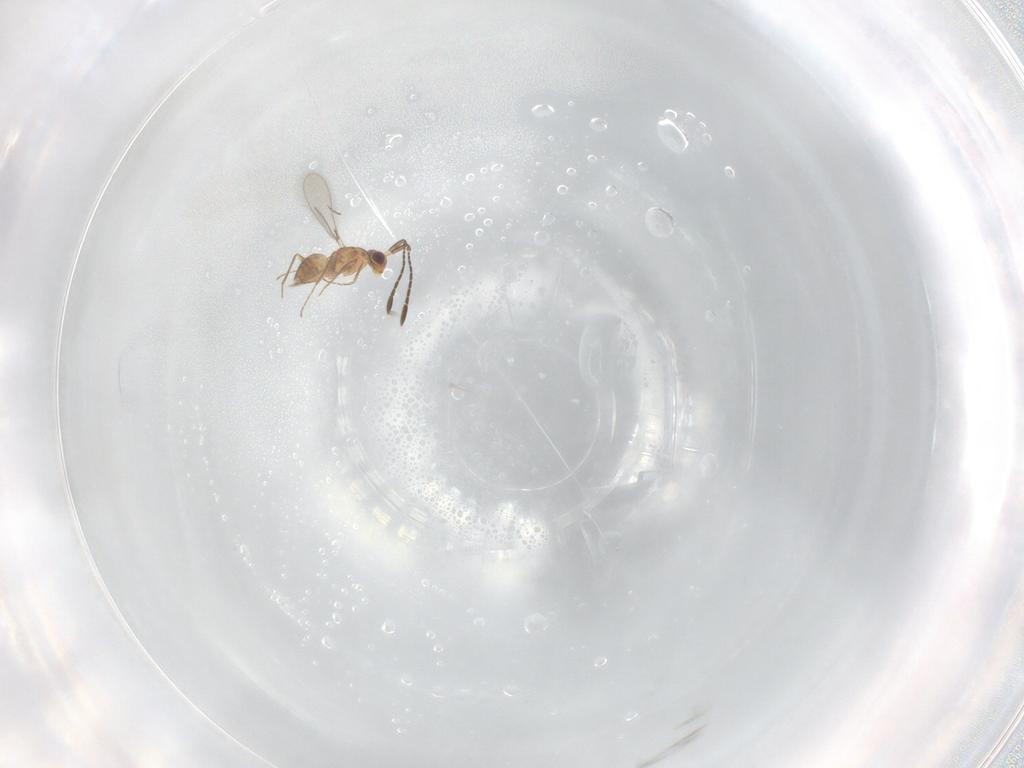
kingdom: Animalia
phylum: Arthropoda
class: Insecta
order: Hymenoptera
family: Mymaridae
